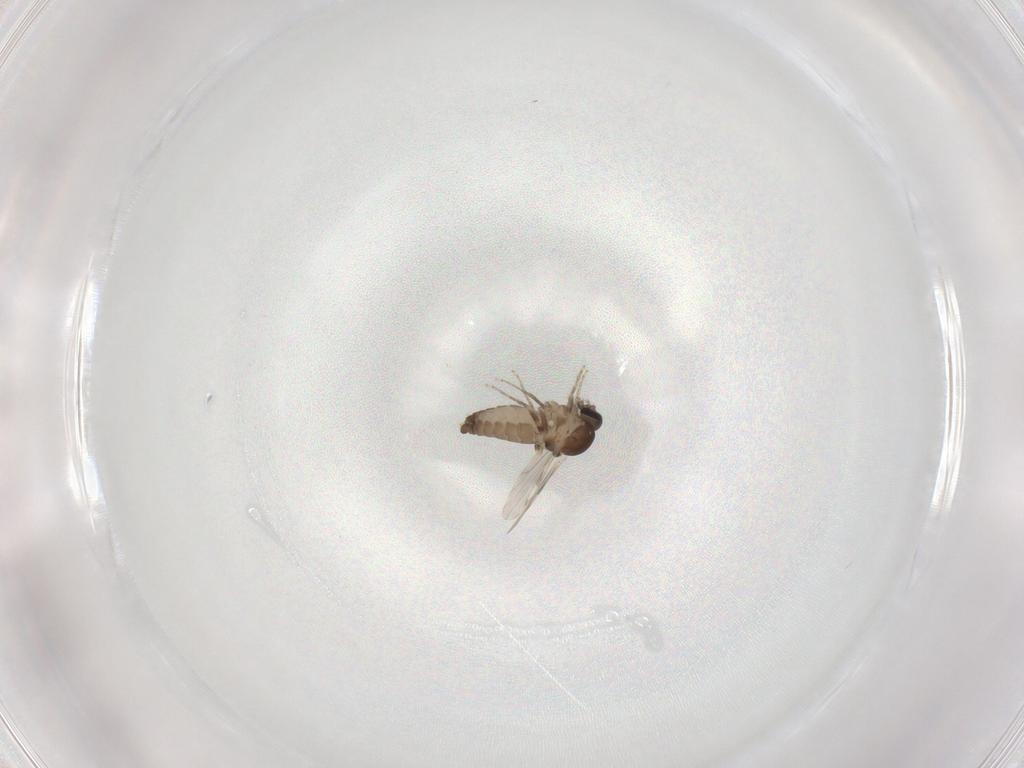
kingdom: Animalia
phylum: Arthropoda
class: Insecta
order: Diptera
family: Ceratopogonidae
